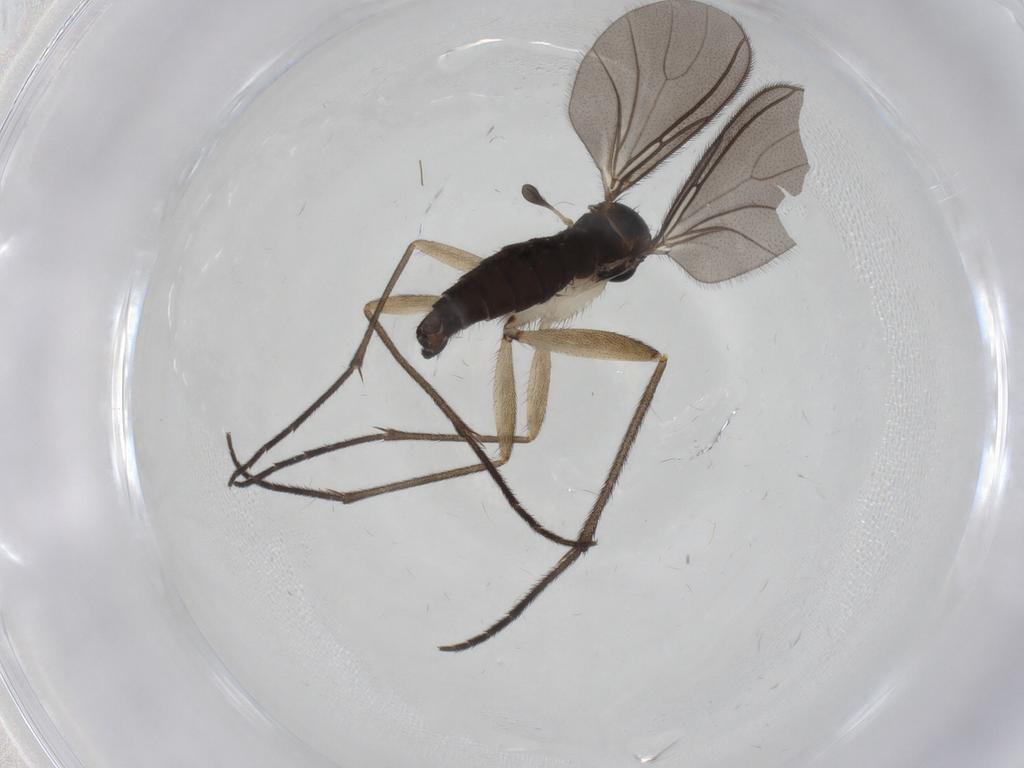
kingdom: Animalia
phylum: Arthropoda
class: Insecta
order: Diptera
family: Sciaridae
